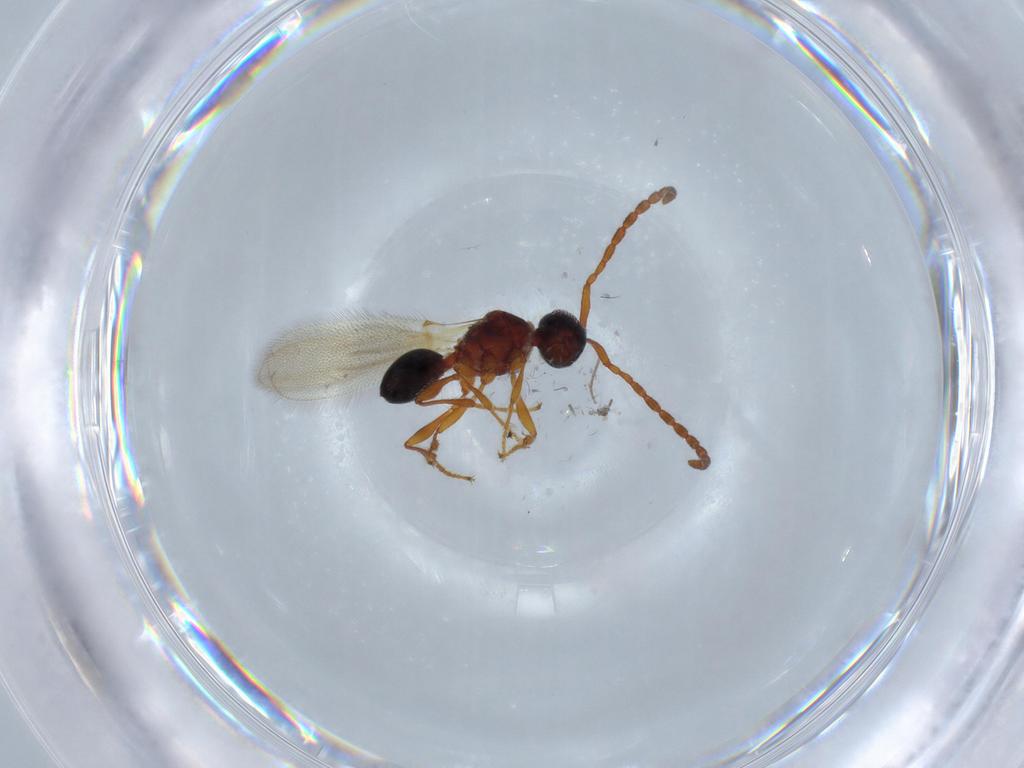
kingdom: Animalia
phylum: Arthropoda
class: Insecta
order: Hymenoptera
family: Diapriidae
